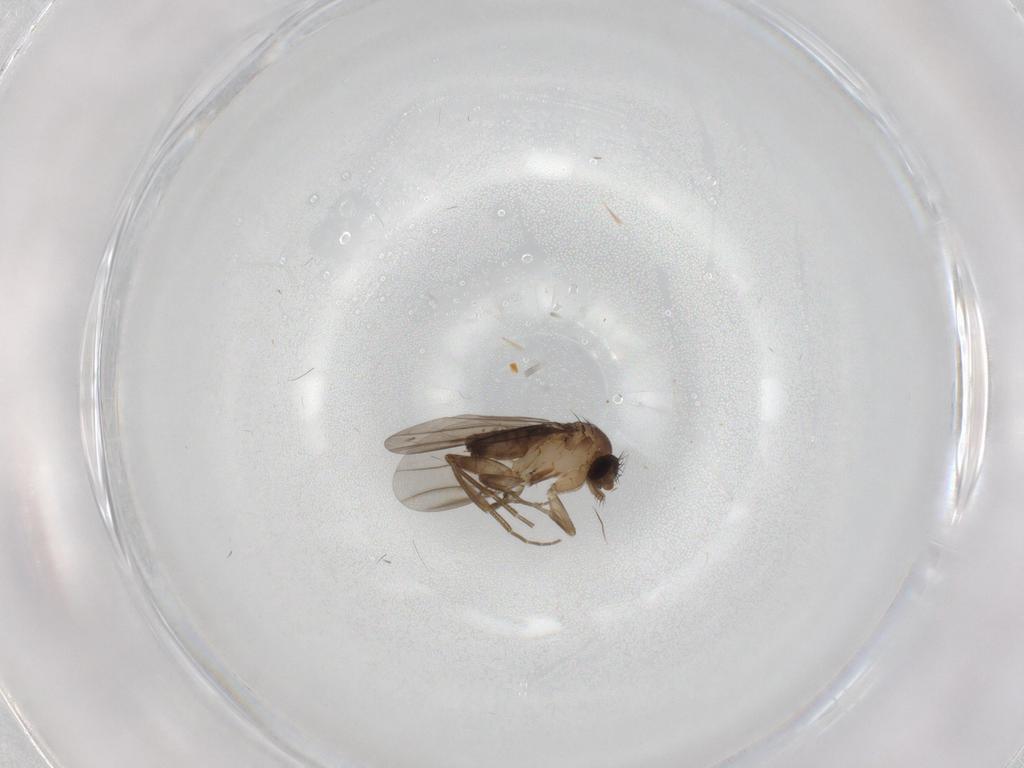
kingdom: Animalia
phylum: Arthropoda
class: Insecta
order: Diptera
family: Phoridae
